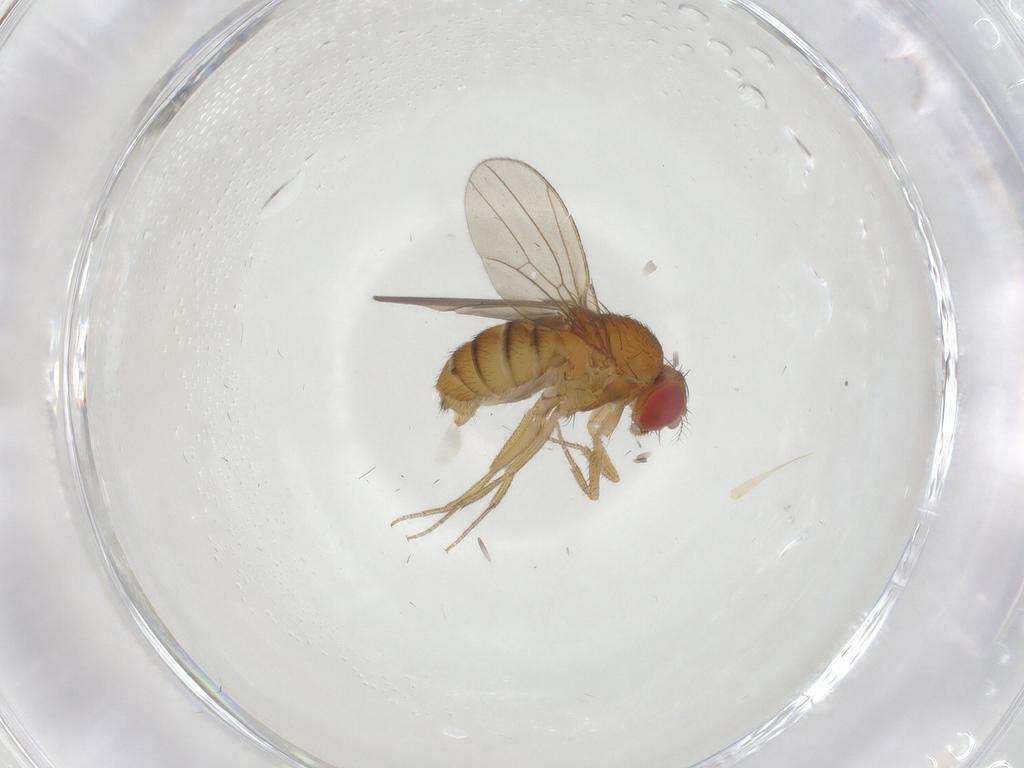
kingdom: Animalia
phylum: Arthropoda
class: Insecta
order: Diptera
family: Drosophilidae
